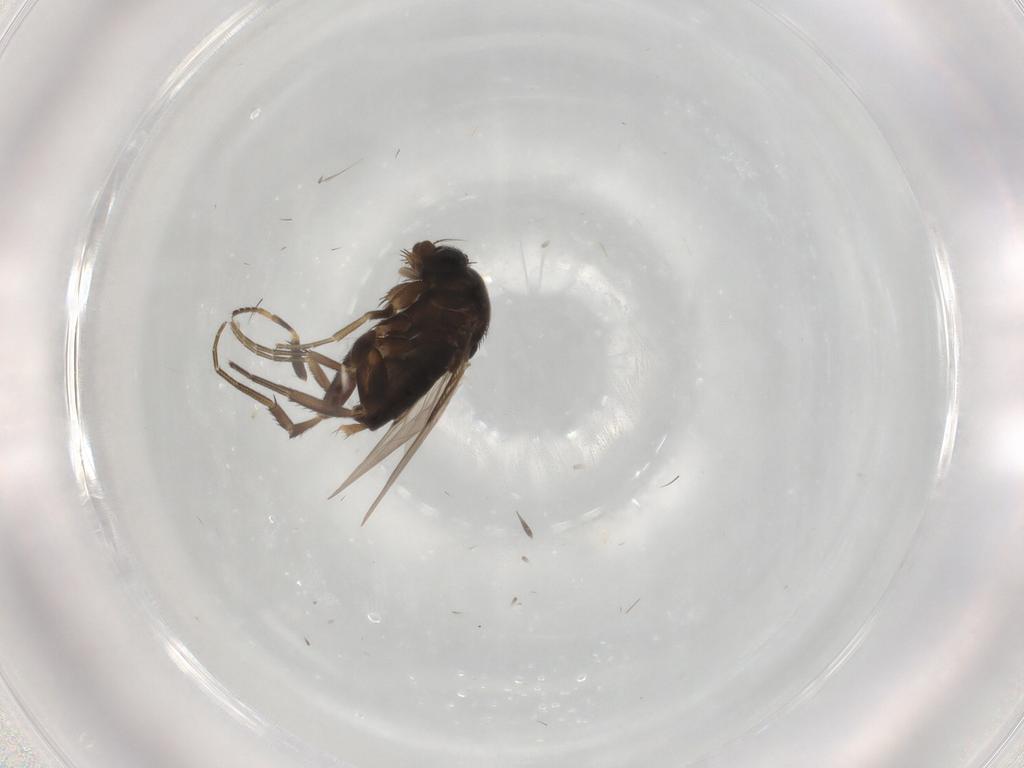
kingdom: Animalia
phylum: Arthropoda
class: Insecta
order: Diptera
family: Phoridae
